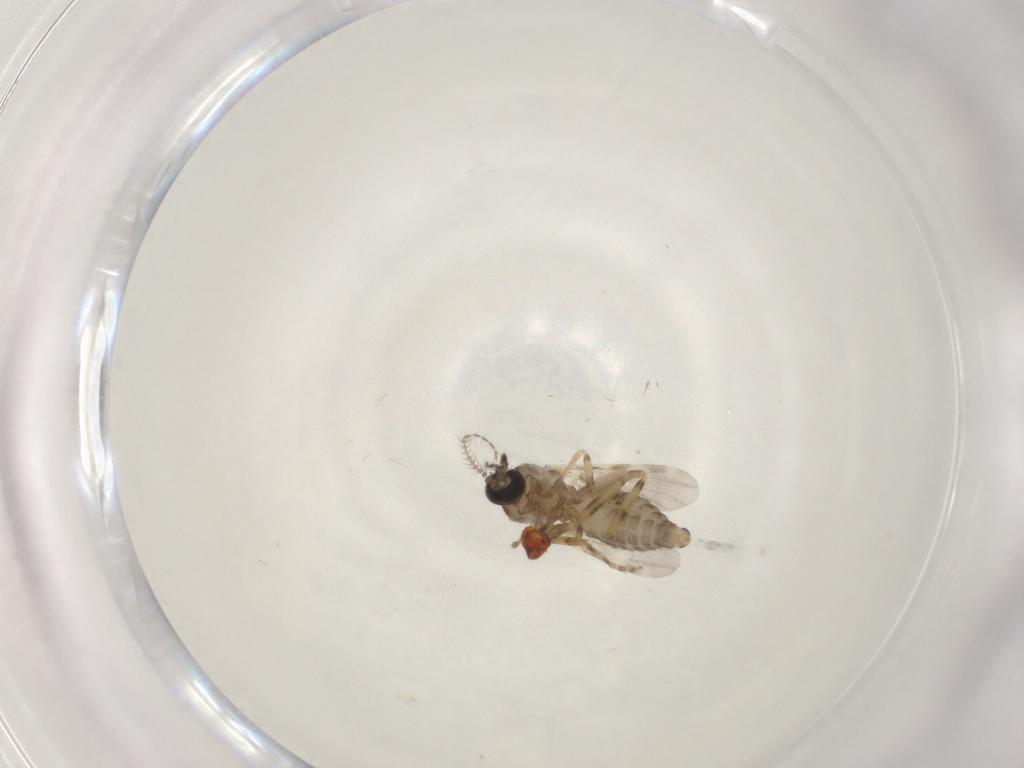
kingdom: Animalia
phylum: Arthropoda
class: Insecta
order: Diptera
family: Ceratopogonidae
